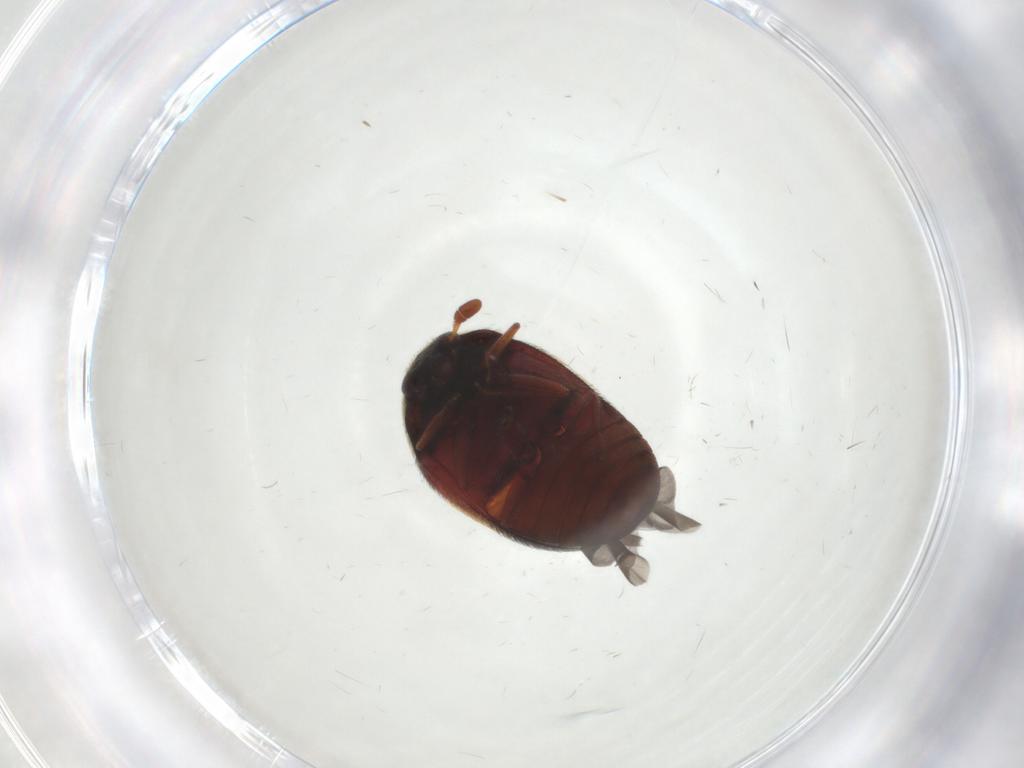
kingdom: Animalia
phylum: Arthropoda
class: Insecta
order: Coleoptera
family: Dermestidae
